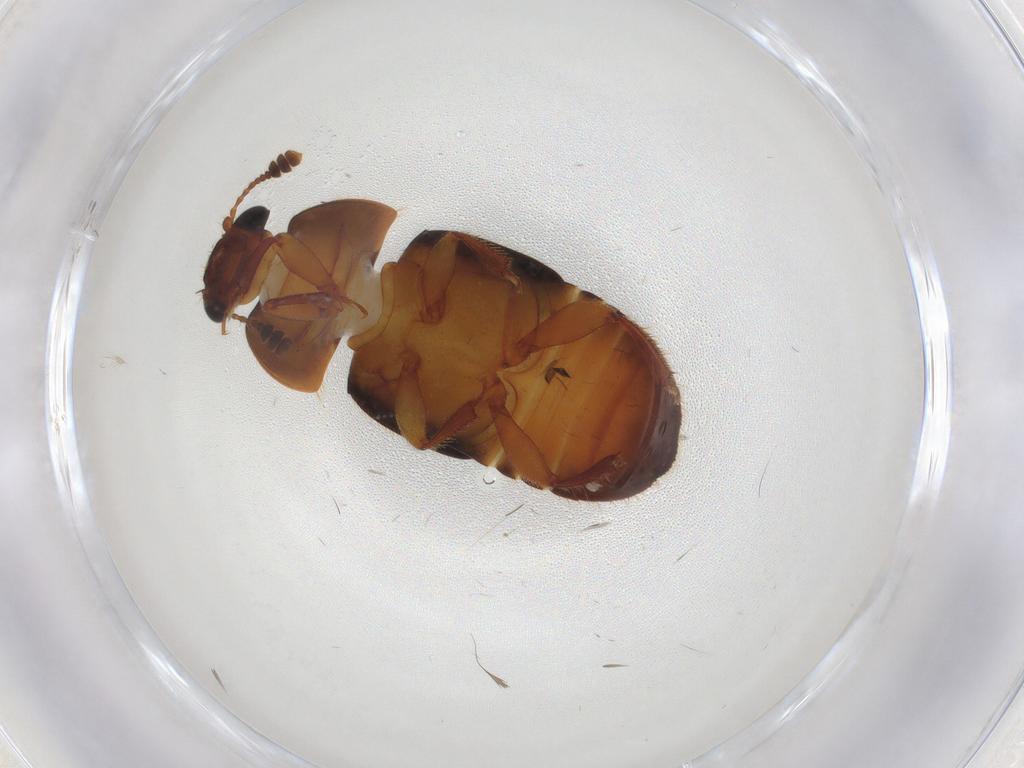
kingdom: Animalia
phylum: Arthropoda
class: Insecta
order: Coleoptera
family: Nitidulidae
